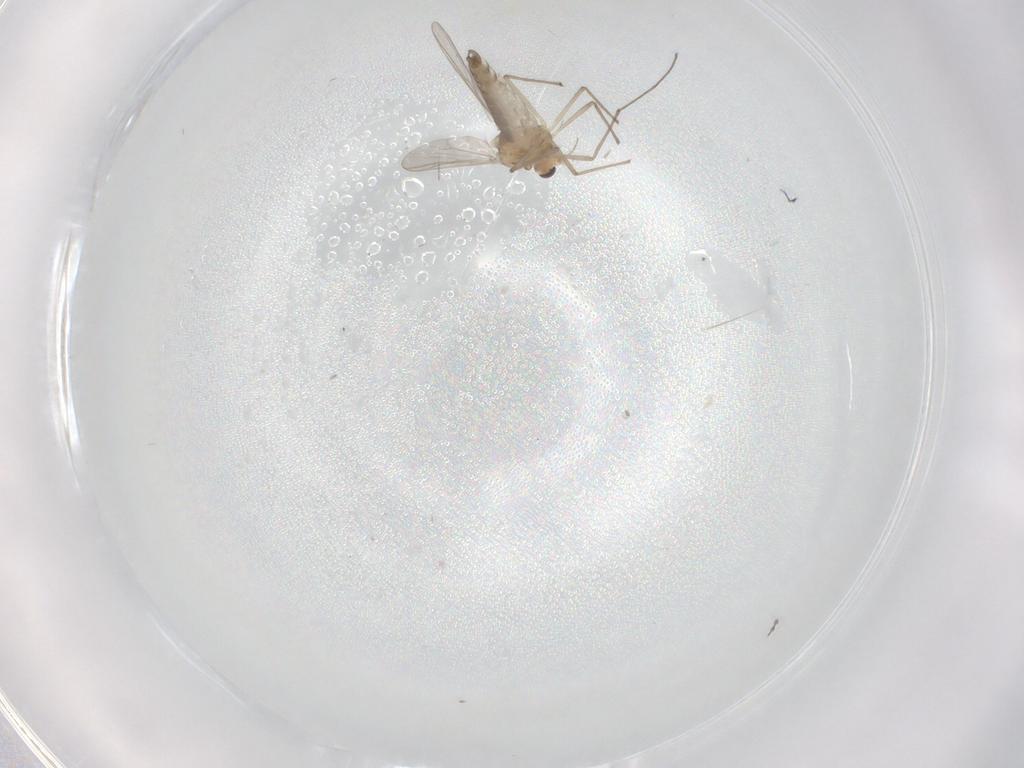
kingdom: Animalia
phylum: Arthropoda
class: Insecta
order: Diptera
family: Chironomidae
